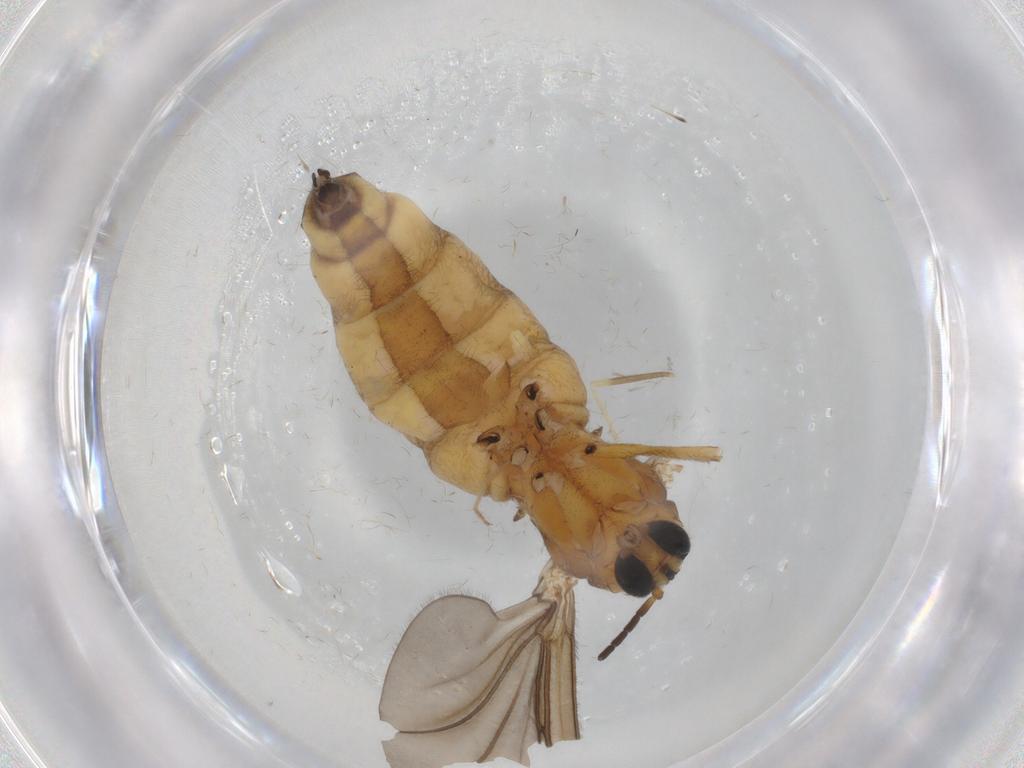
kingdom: Animalia
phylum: Arthropoda
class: Insecta
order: Diptera
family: Sciaridae
